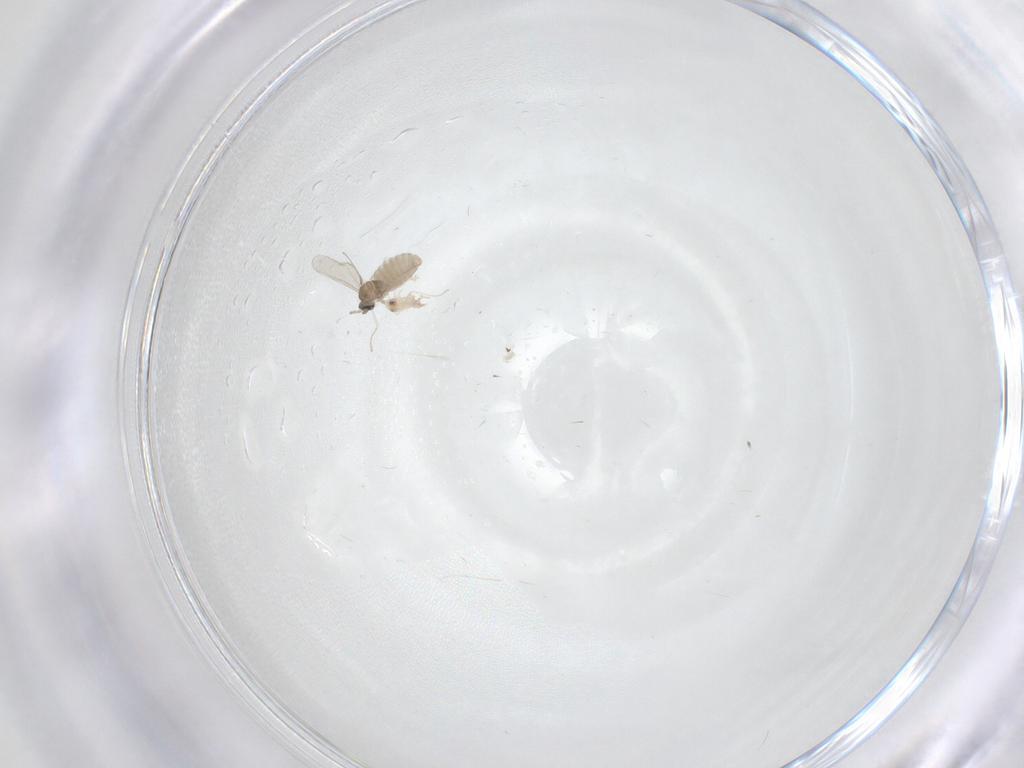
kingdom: Animalia
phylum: Arthropoda
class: Insecta
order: Diptera
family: Cecidomyiidae
